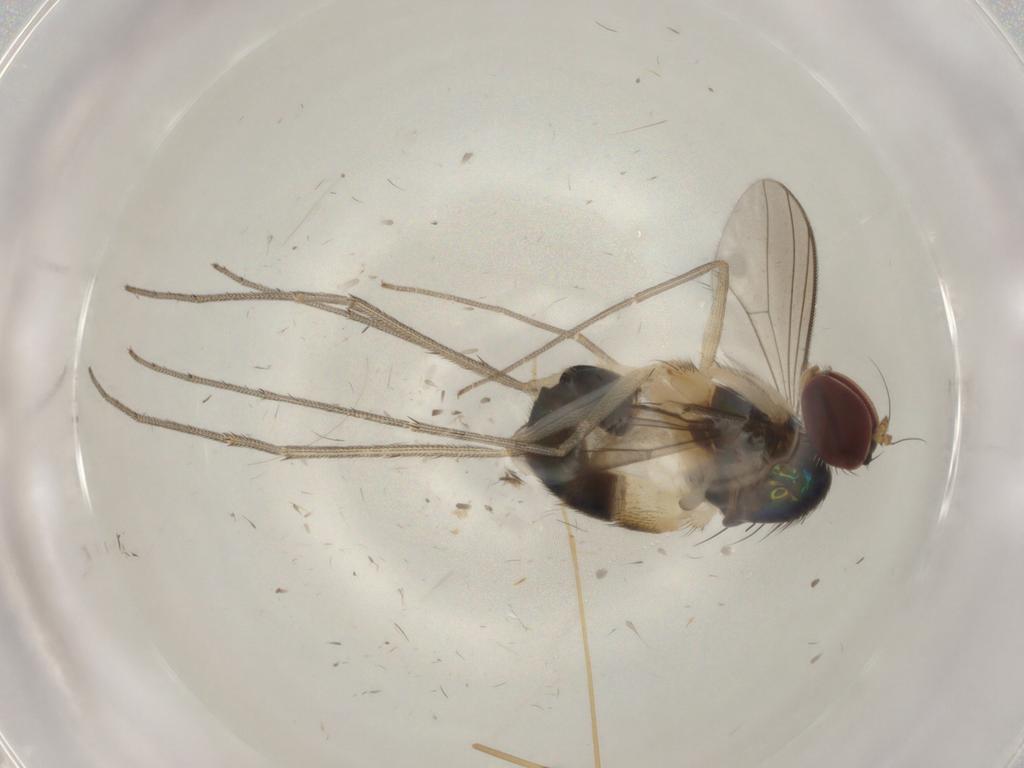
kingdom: Animalia
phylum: Arthropoda
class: Insecta
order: Diptera
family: Limoniidae
